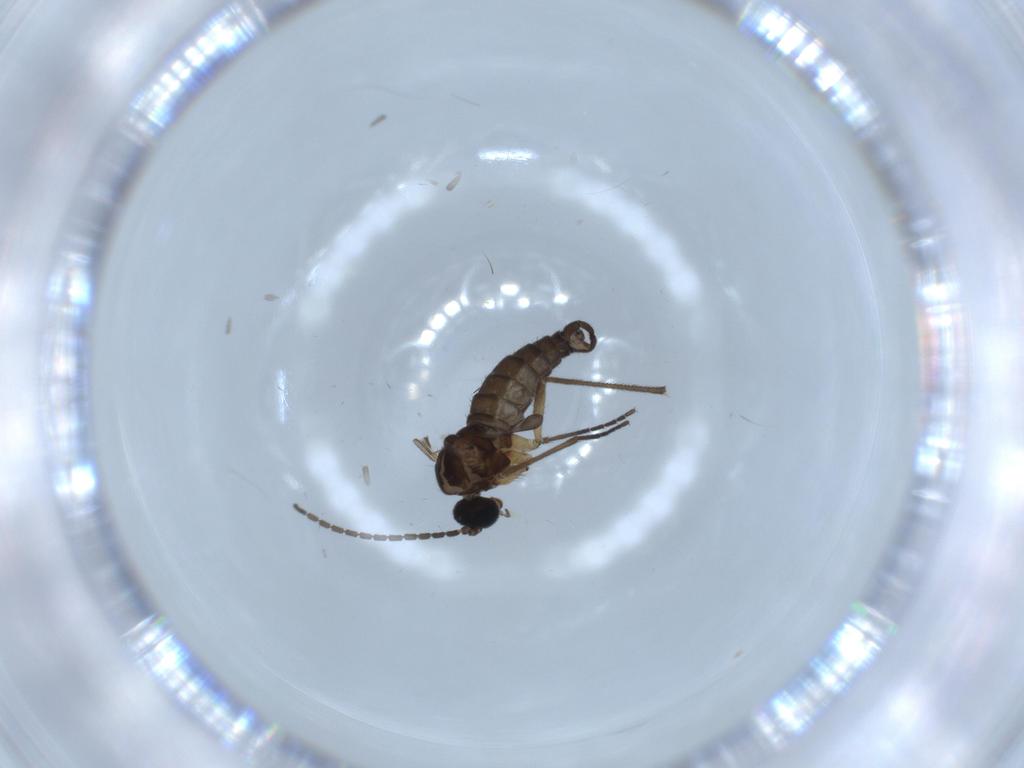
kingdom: Animalia
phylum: Arthropoda
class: Insecta
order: Diptera
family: Sciaridae
